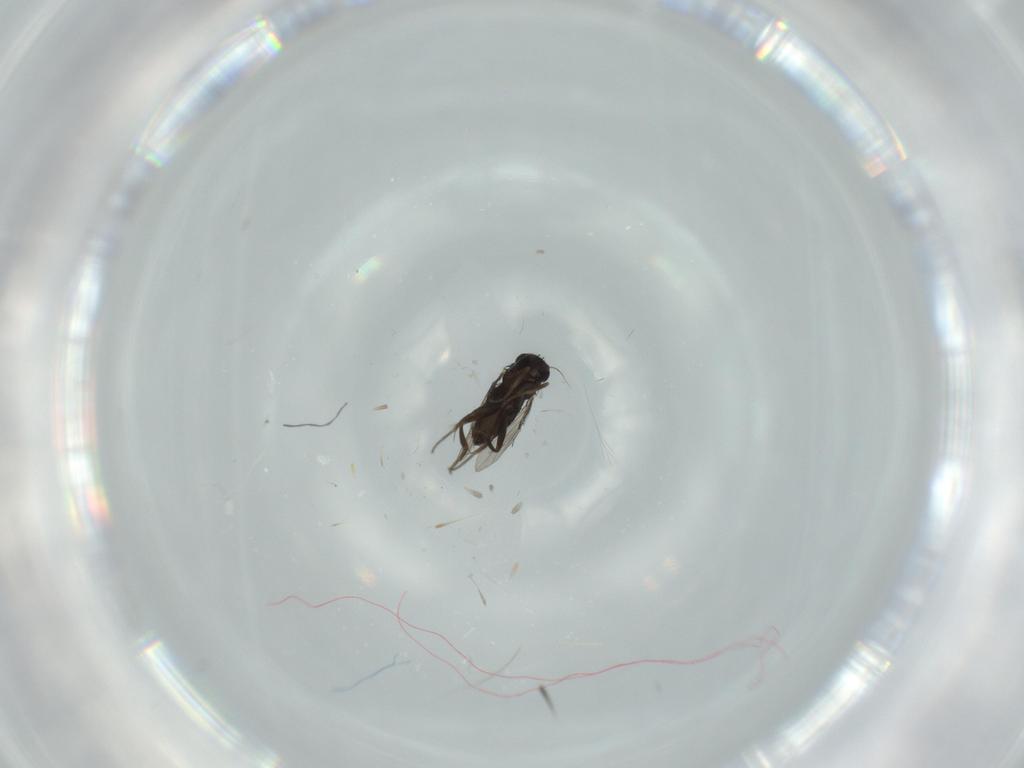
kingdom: Animalia
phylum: Arthropoda
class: Insecta
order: Diptera
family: Phoridae
